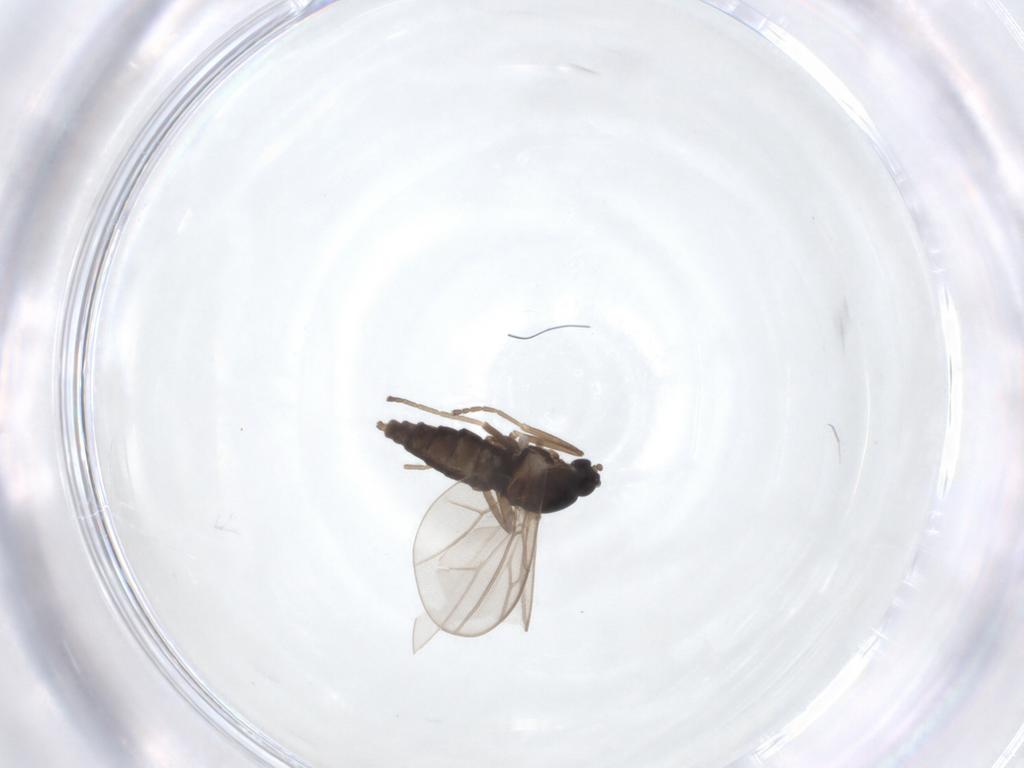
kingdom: Animalia
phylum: Arthropoda
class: Insecta
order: Diptera
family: Cecidomyiidae
